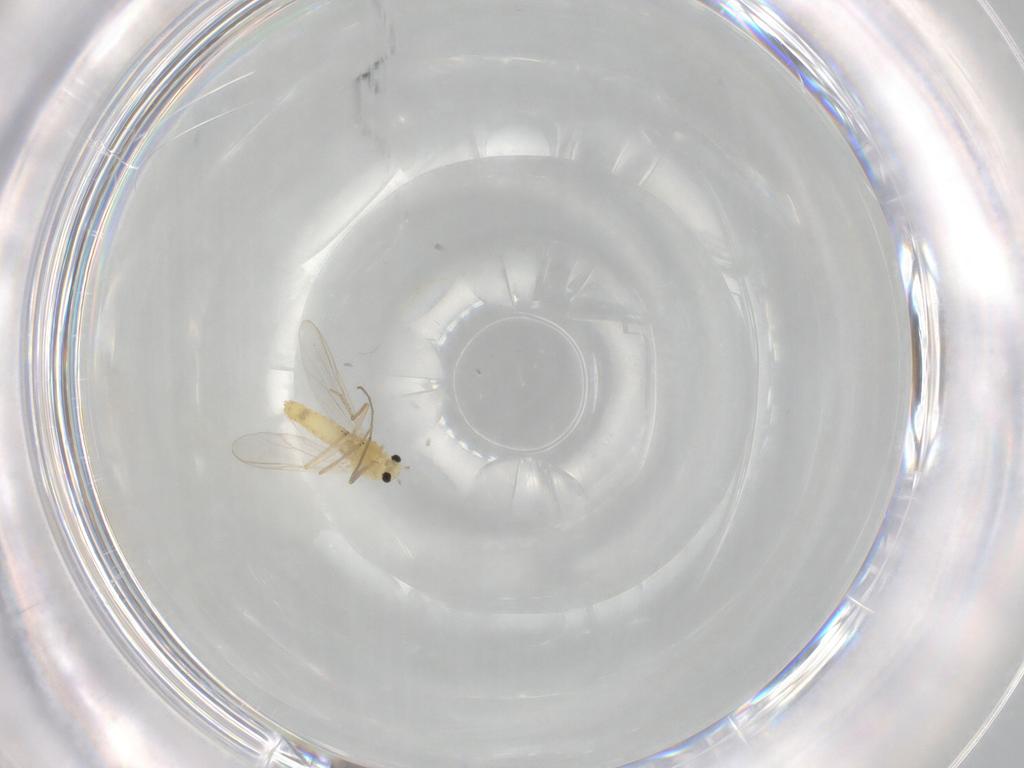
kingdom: Animalia
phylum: Arthropoda
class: Insecta
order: Diptera
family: Chironomidae
